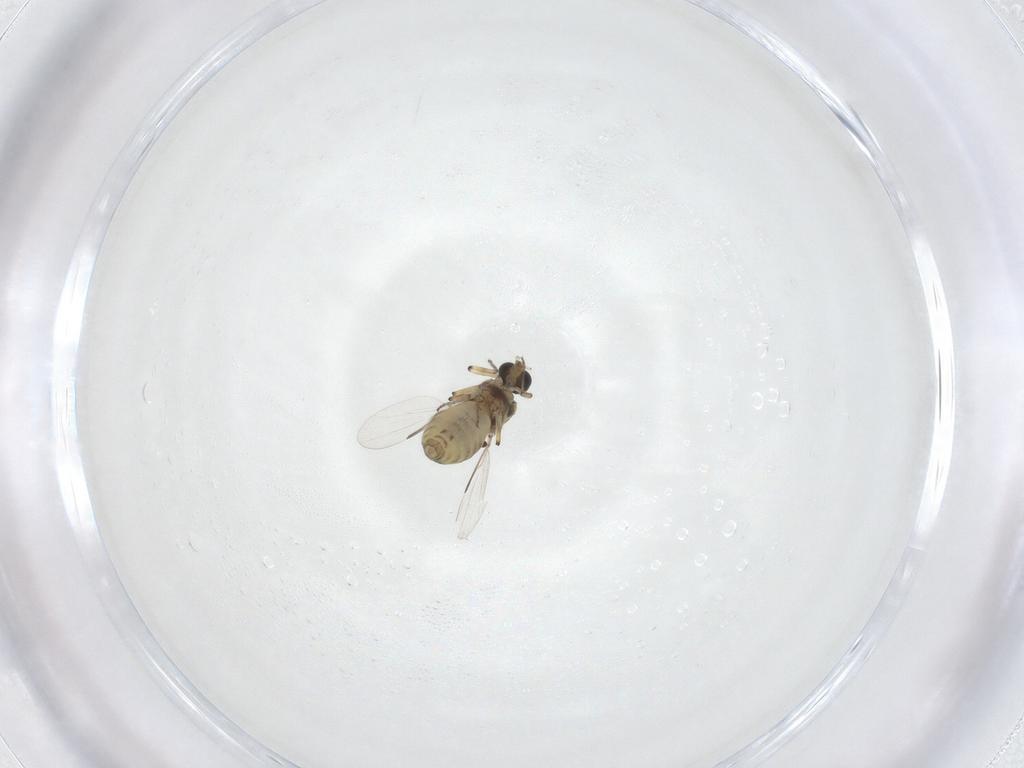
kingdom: Animalia
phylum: Arthropoda
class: Insecta
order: Diptera
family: Ceratopogonidae
